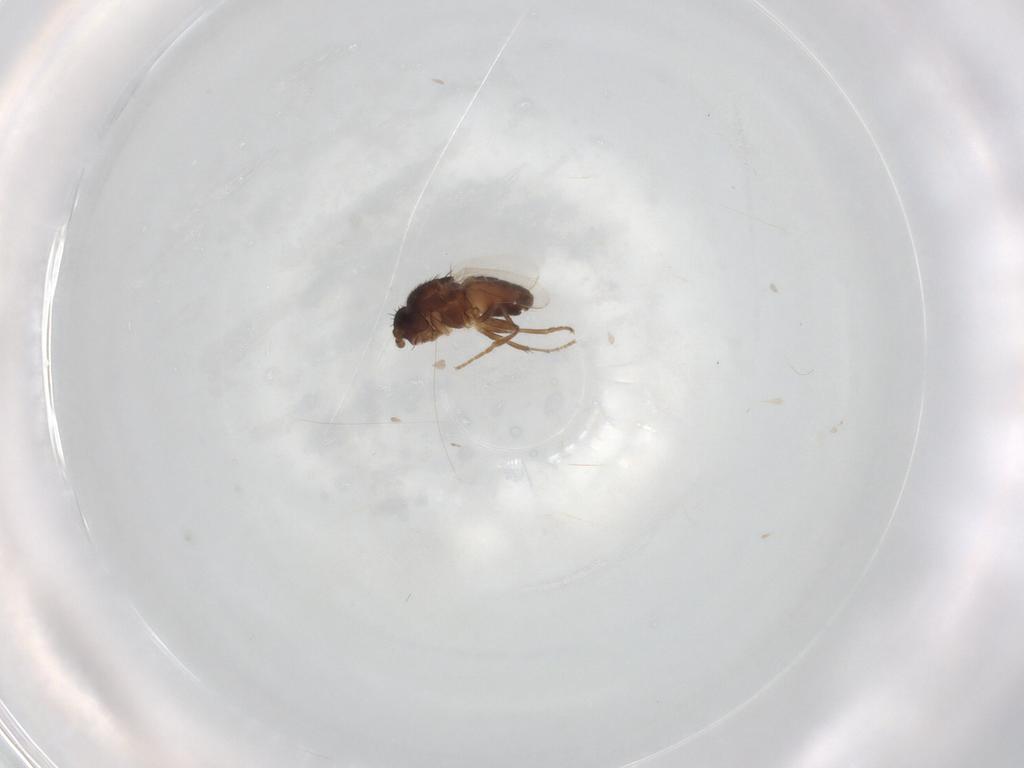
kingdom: Animalia
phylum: Arthropoda
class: Insecta
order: Diptera
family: Sphaeroceridae
